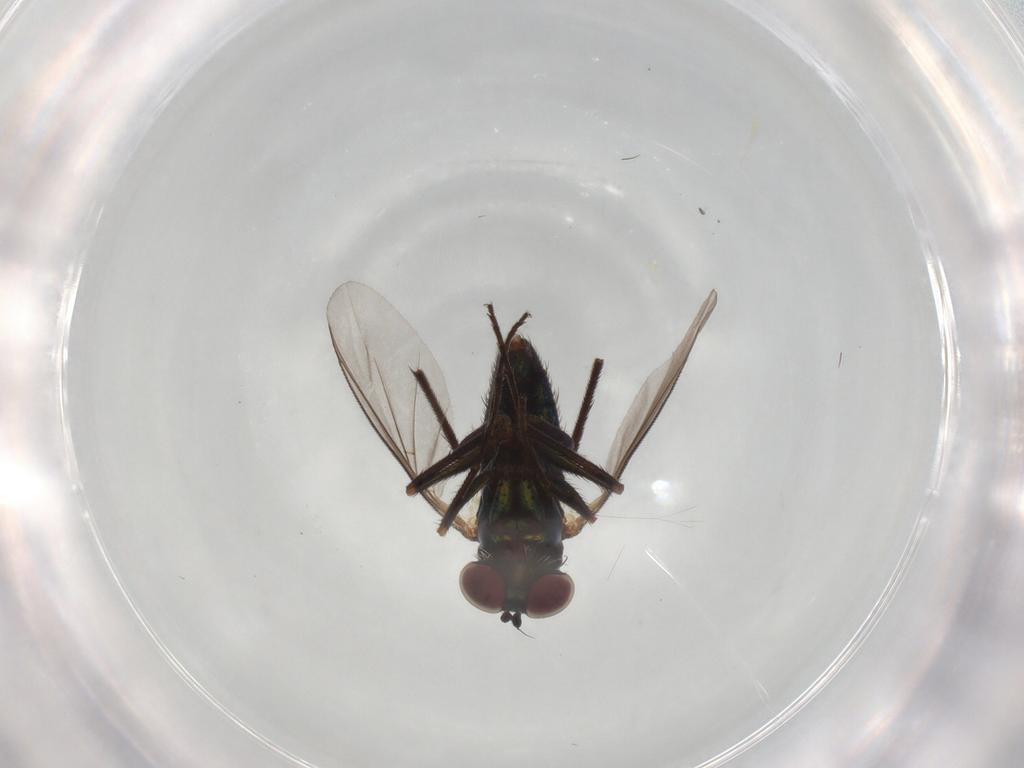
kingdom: Animalia
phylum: Arthropoda
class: Insecta
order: Diptera
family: Dolichopodidae
